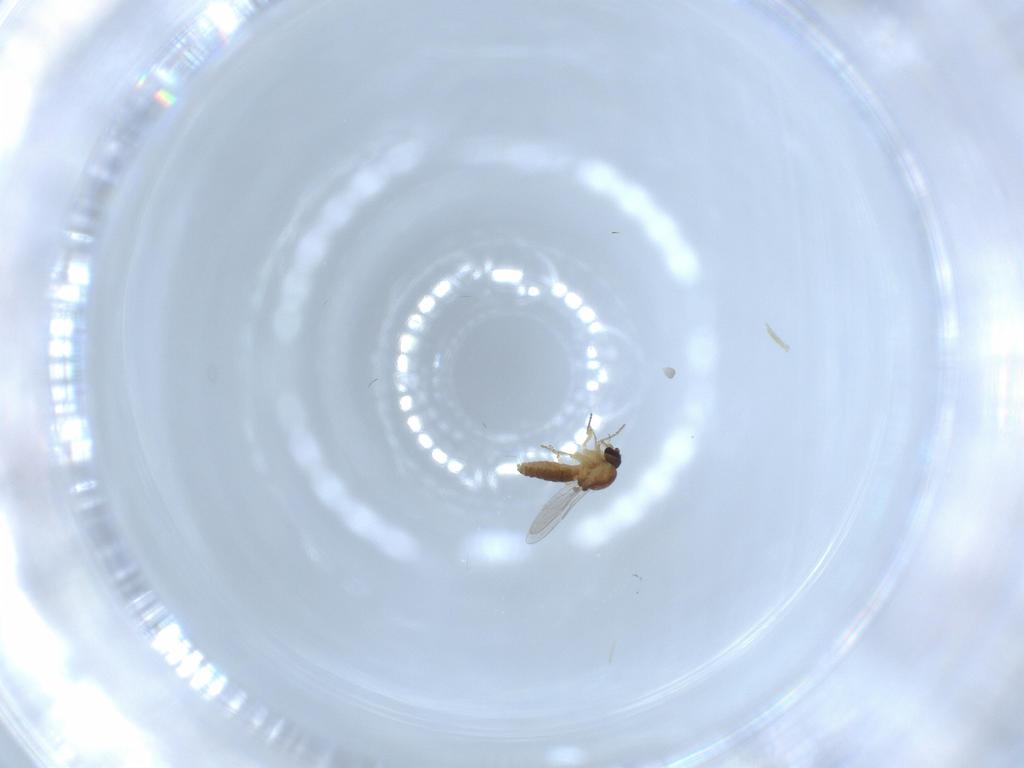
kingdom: Animalia
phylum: Arthropoda
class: Insecta
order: Diptera
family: Ceratopogonidae
